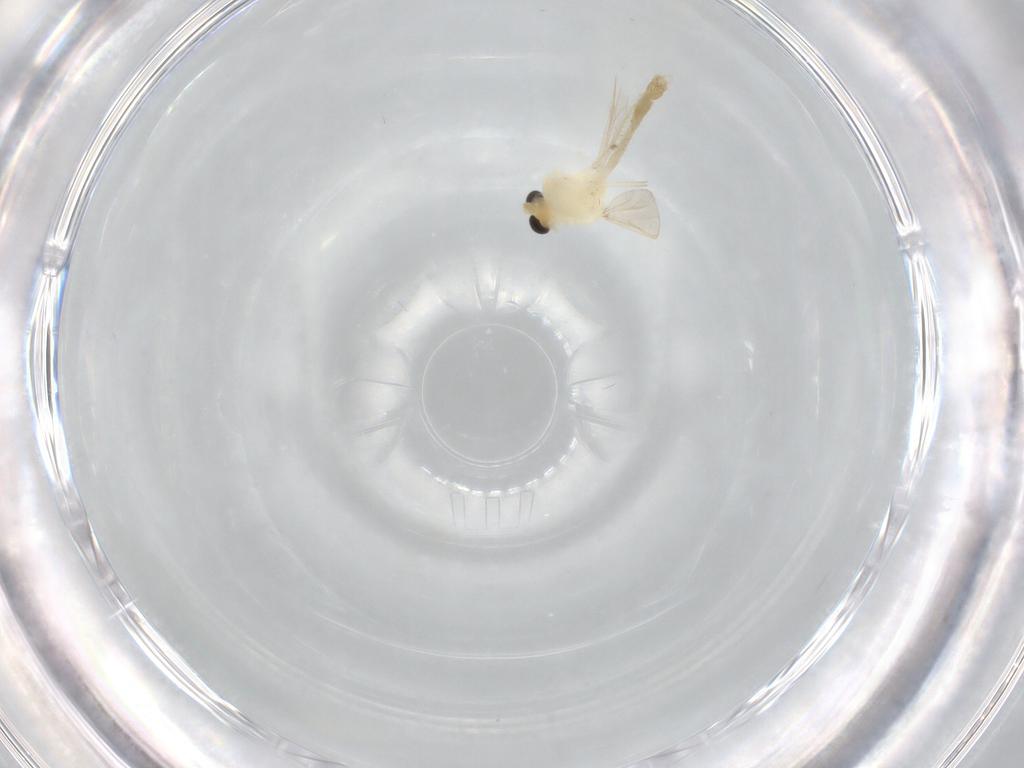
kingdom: Animalia
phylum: Arthropoda
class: Insecta
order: Diptera
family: Chironomidae
